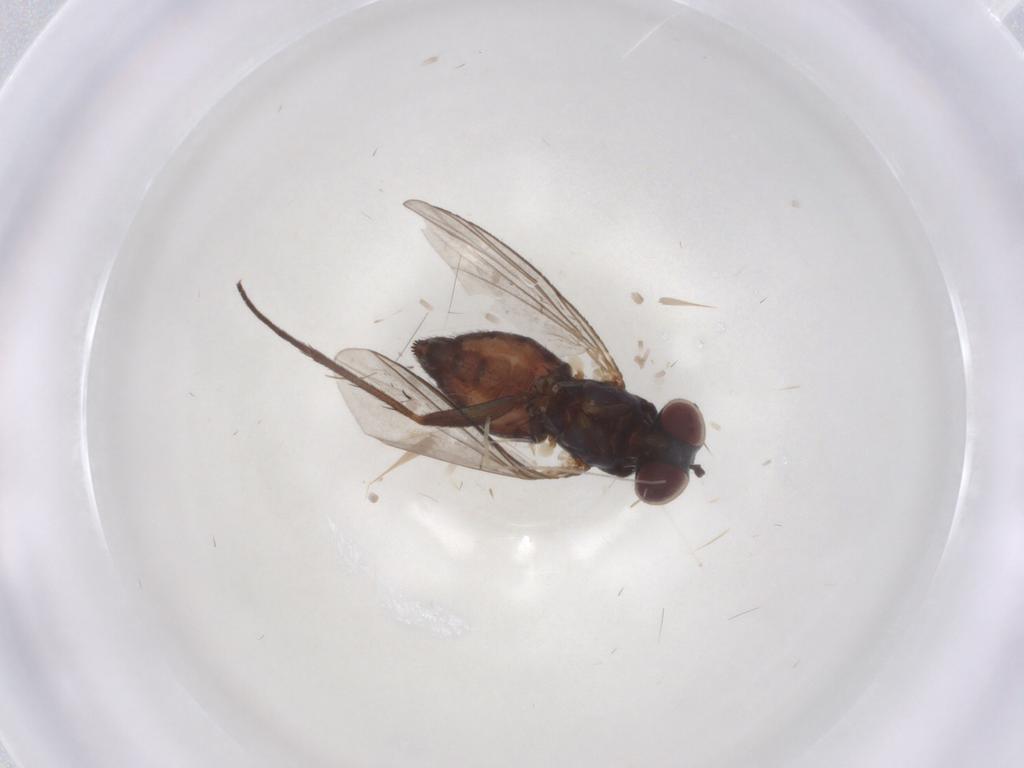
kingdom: Animalia
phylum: Arthropoda
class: Insecta
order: Diptera
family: Dolichopodidae
